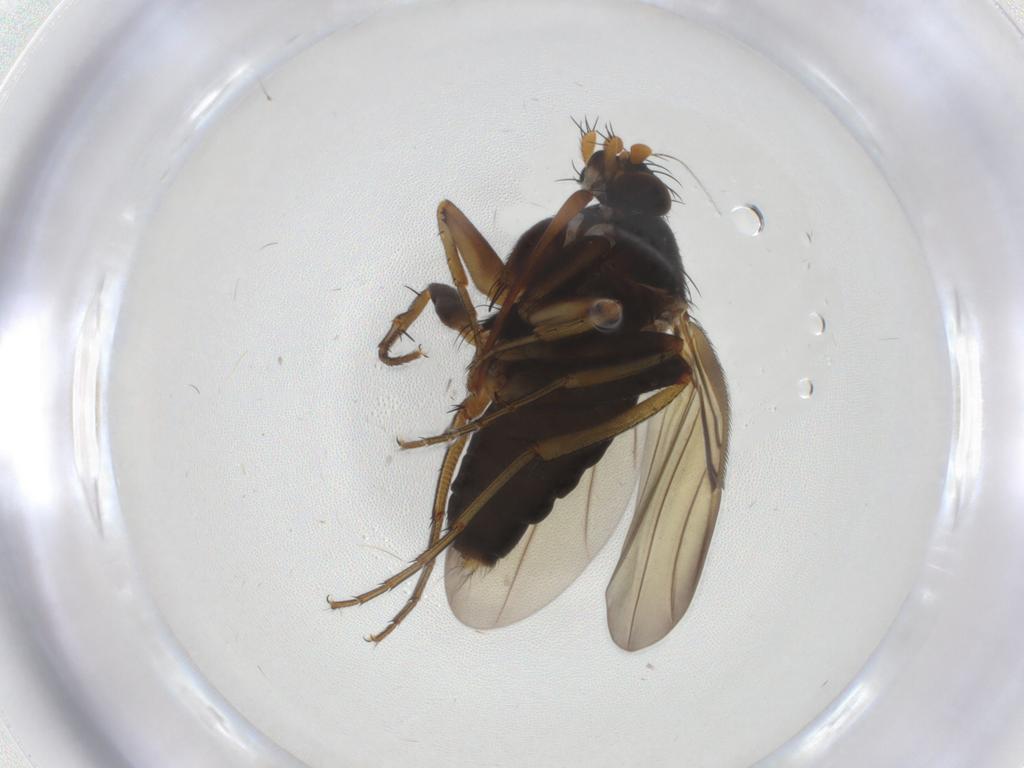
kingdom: Animalia
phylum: Arthropoda
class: Insecta
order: Diptera
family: Phoridae
